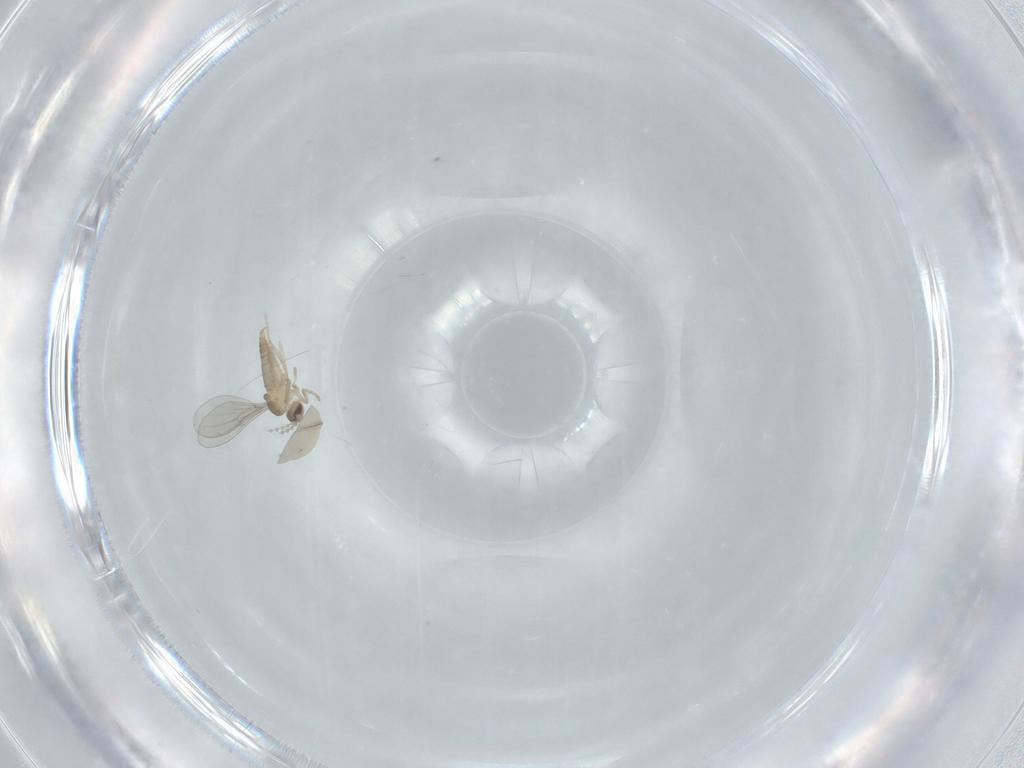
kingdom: Animalia
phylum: Arthropoda
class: Insecta
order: Diptera
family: Cecidomyiidae
